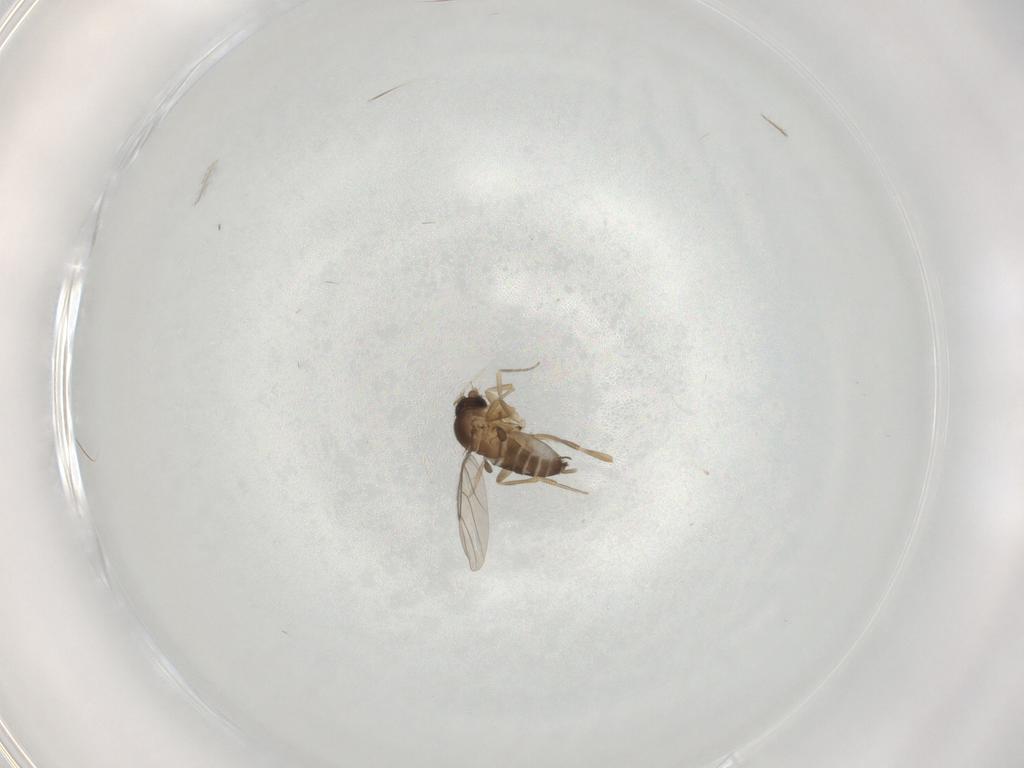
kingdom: Animalia
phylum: Arthropoda
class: Insecta
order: Diptera
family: Phoridae
